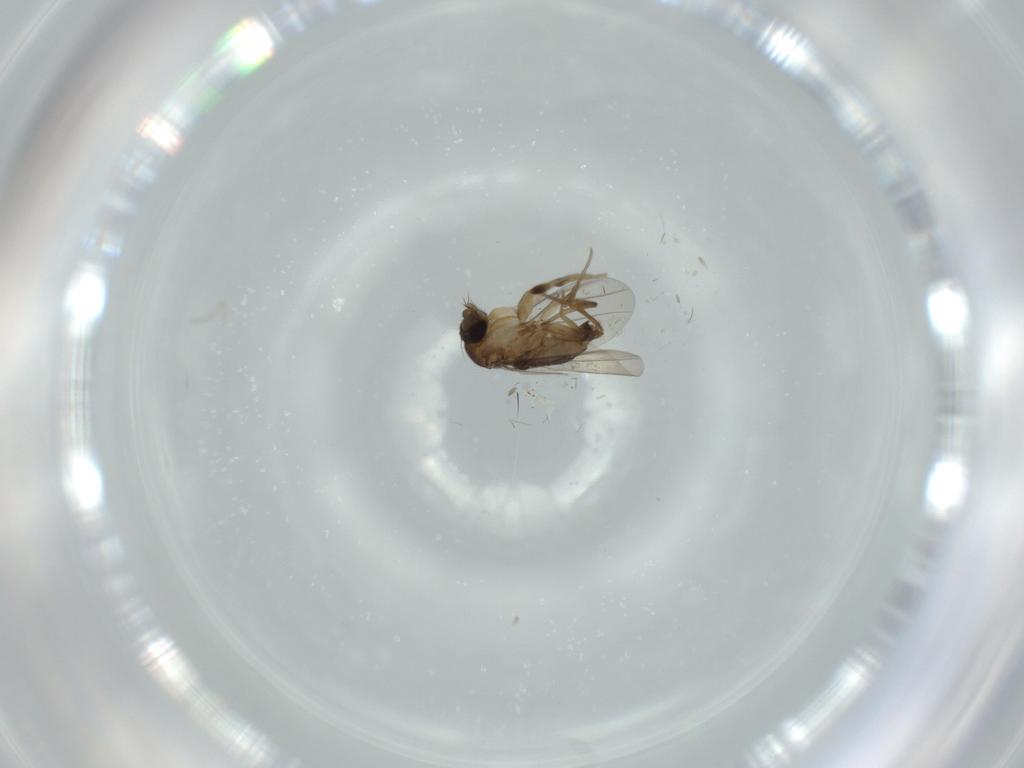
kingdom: Animalia
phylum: Arthropoda
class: Insecta
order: Diptera
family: Phoridae
